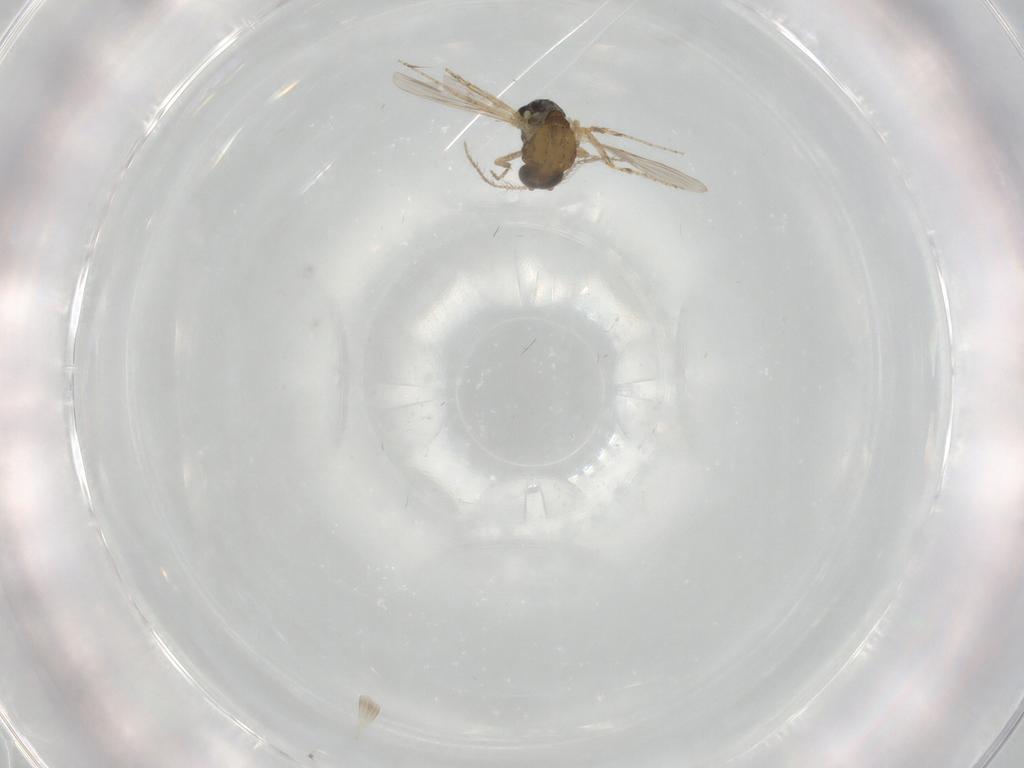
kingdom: Animalia
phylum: Arthropoda
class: Insecta
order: Diptera
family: Ceratopogonidae
